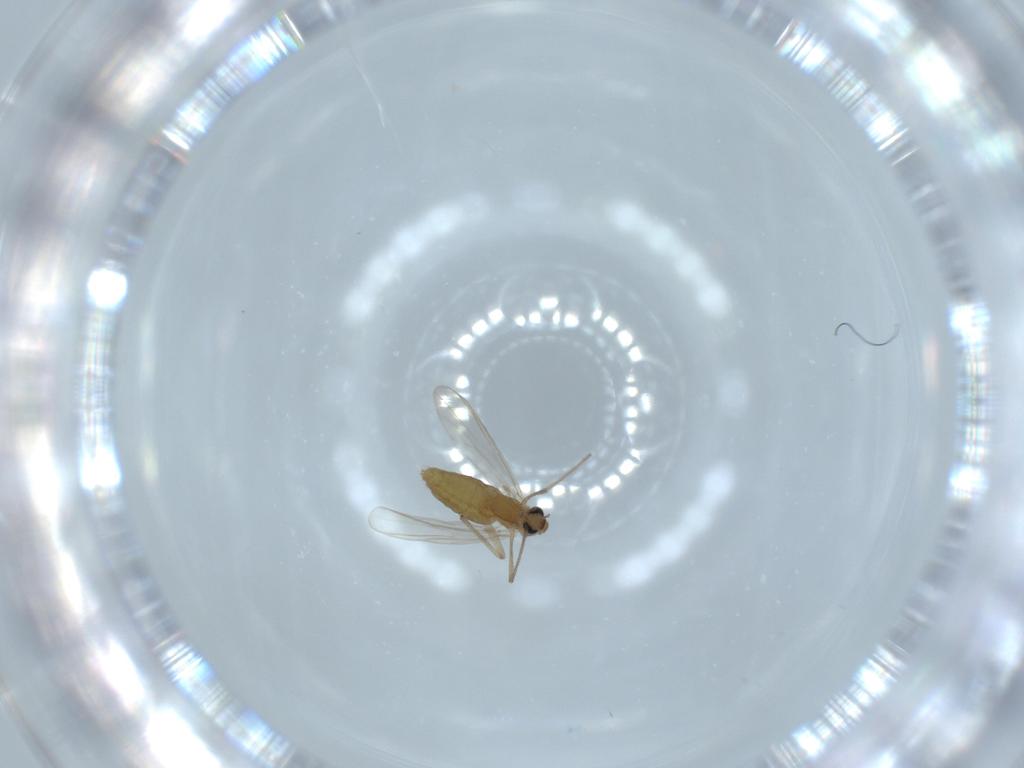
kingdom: Animalia
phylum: Arthropoda
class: Insecta
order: Diptera
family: Chironomidae
